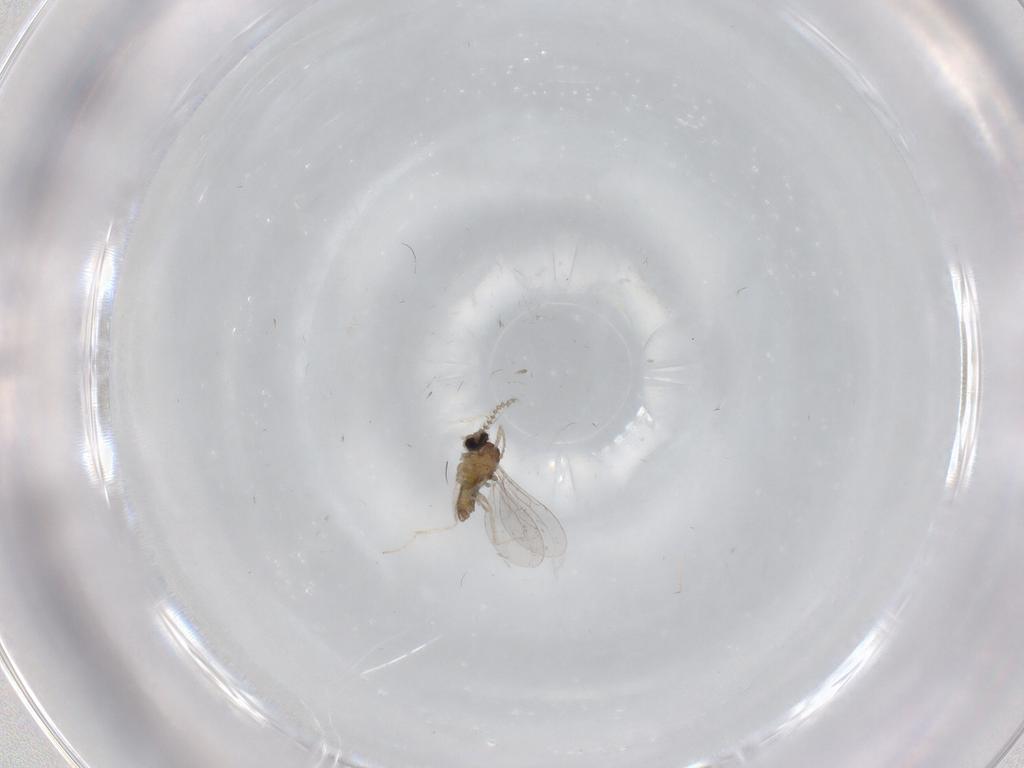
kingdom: Animalia
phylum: Arthropoda
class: Insecta
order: Diptera
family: Cecidomyiidae
